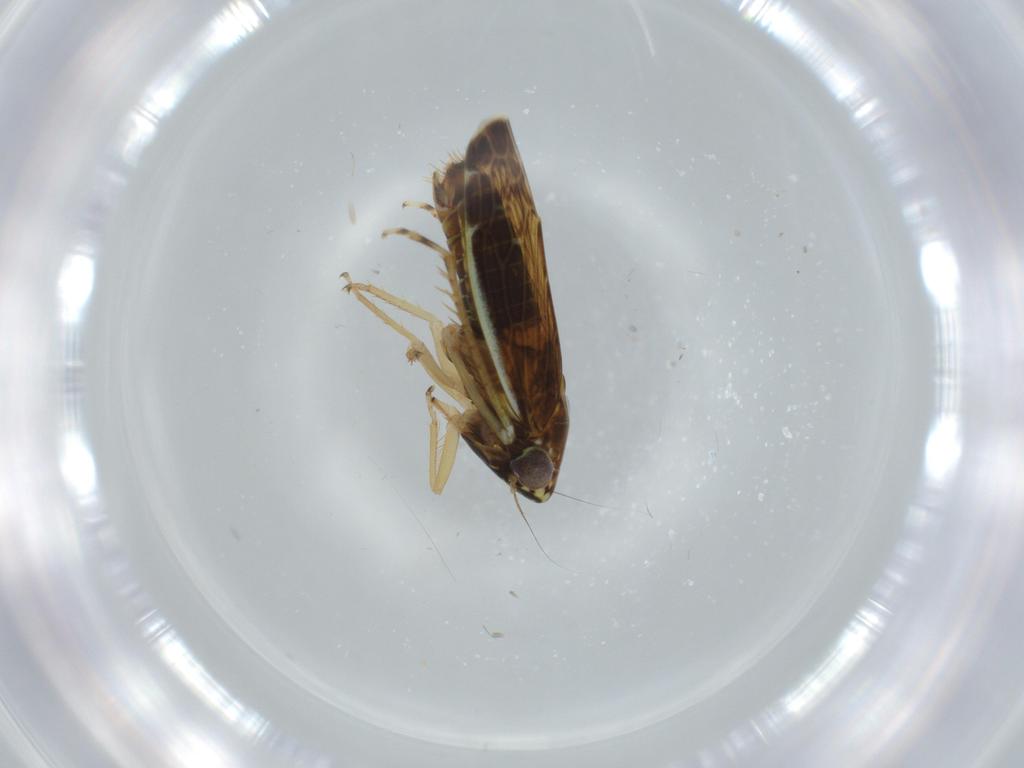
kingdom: Animalia
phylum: Arthropoda
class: Insecta
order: Hemiptera
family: Cicadellidae
